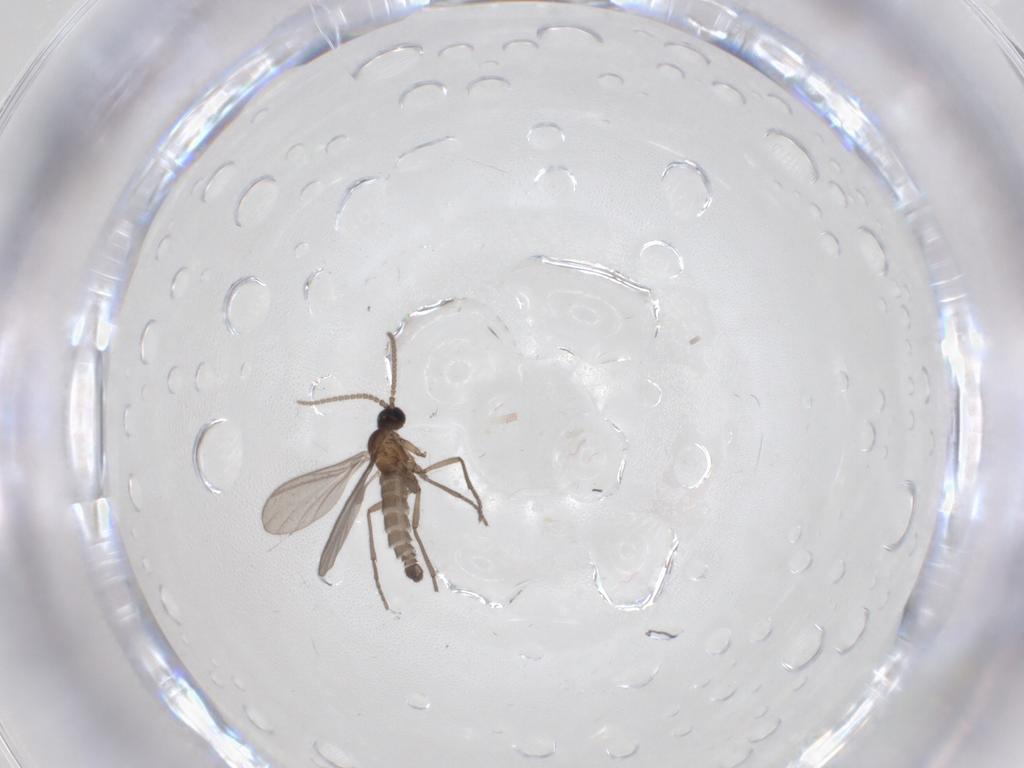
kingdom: Animalia
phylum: Arthropoda
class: Insecta
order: Diptera
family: Sciaridae
